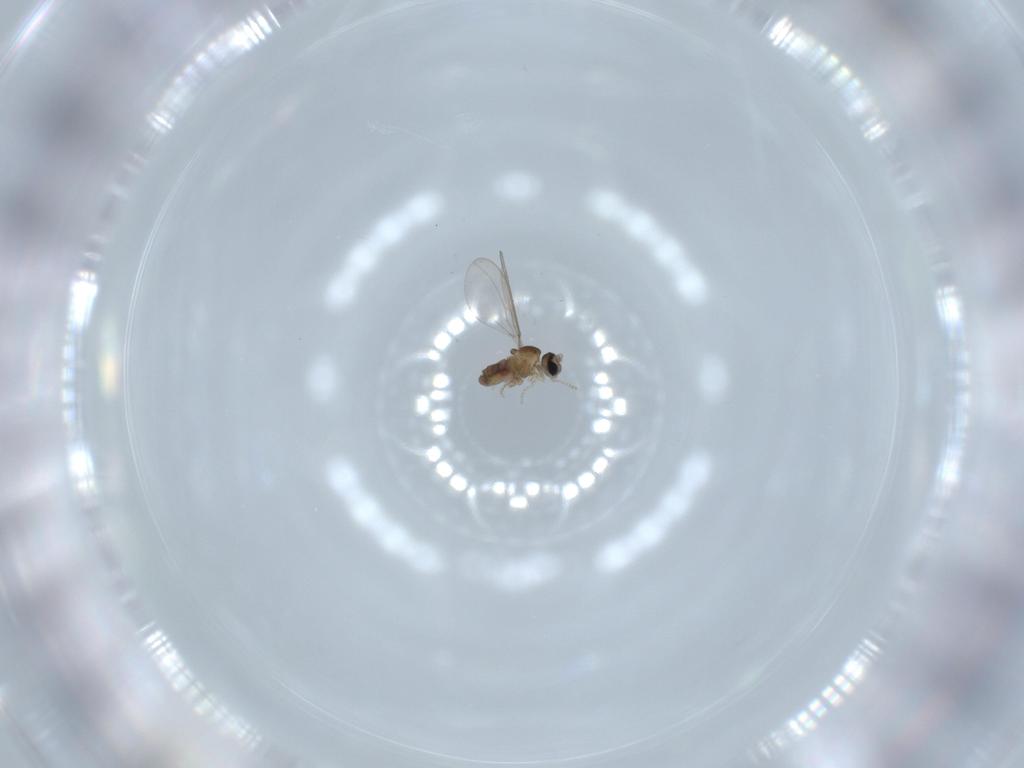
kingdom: Animalia
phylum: Arthropoda
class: Insecta
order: Diptera
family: Cecidomyiidae
